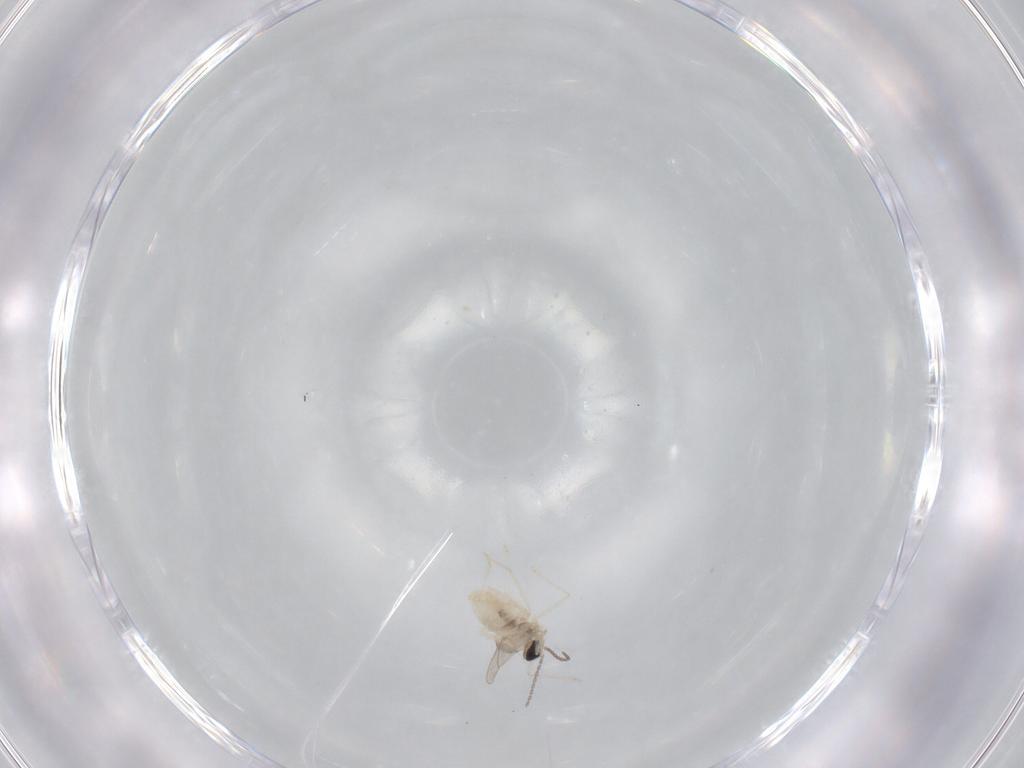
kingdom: Animalia
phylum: Arthropoda
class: Insecta
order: Diptera
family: Cecidomyiidae
